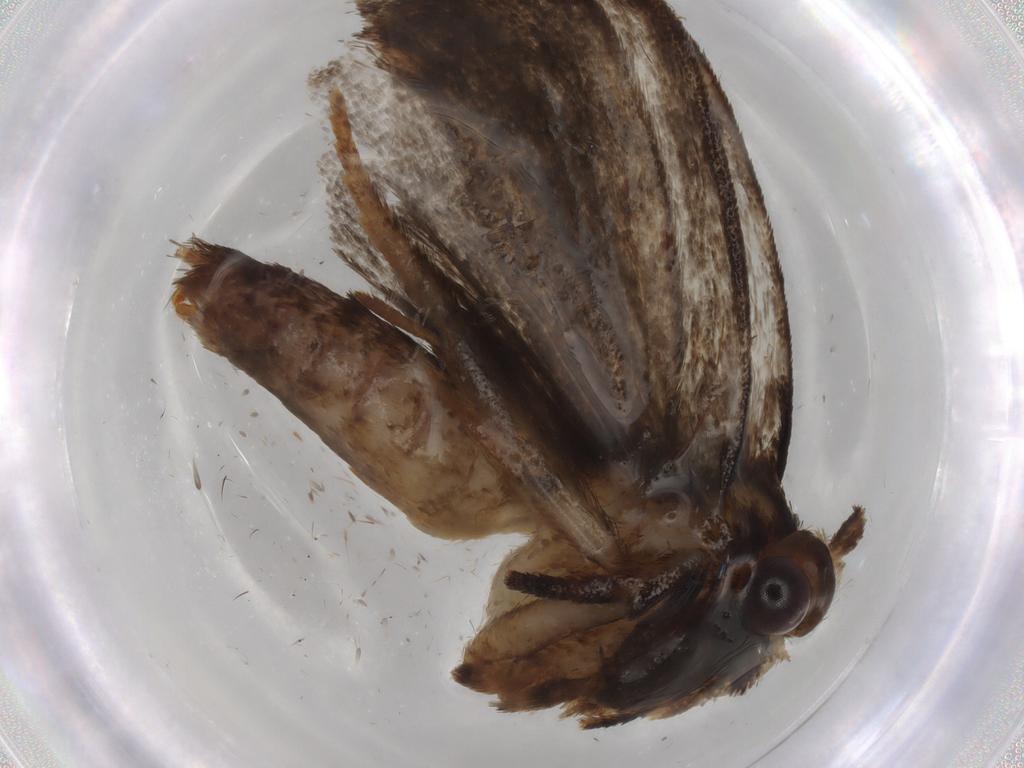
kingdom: Animalia
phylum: Arthropoda
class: Insecta
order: Lepidoptera
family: Tineidae
